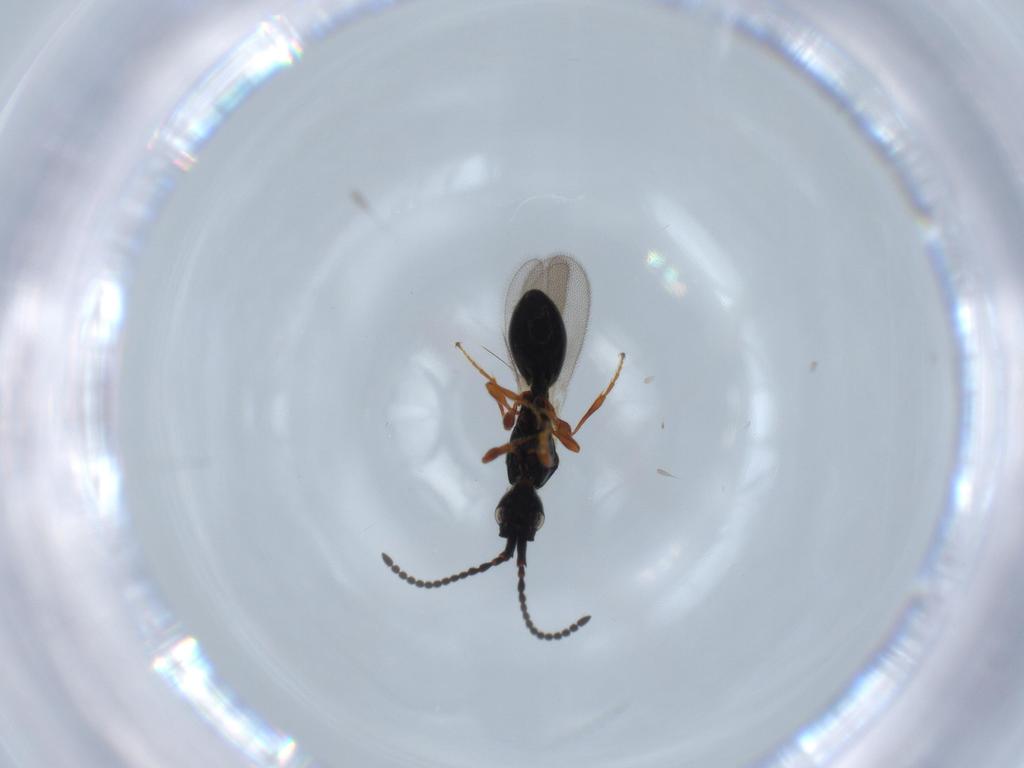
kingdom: Animalia
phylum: Arthropoda
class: Insecta
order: Hymenoptera
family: Diapriidae
